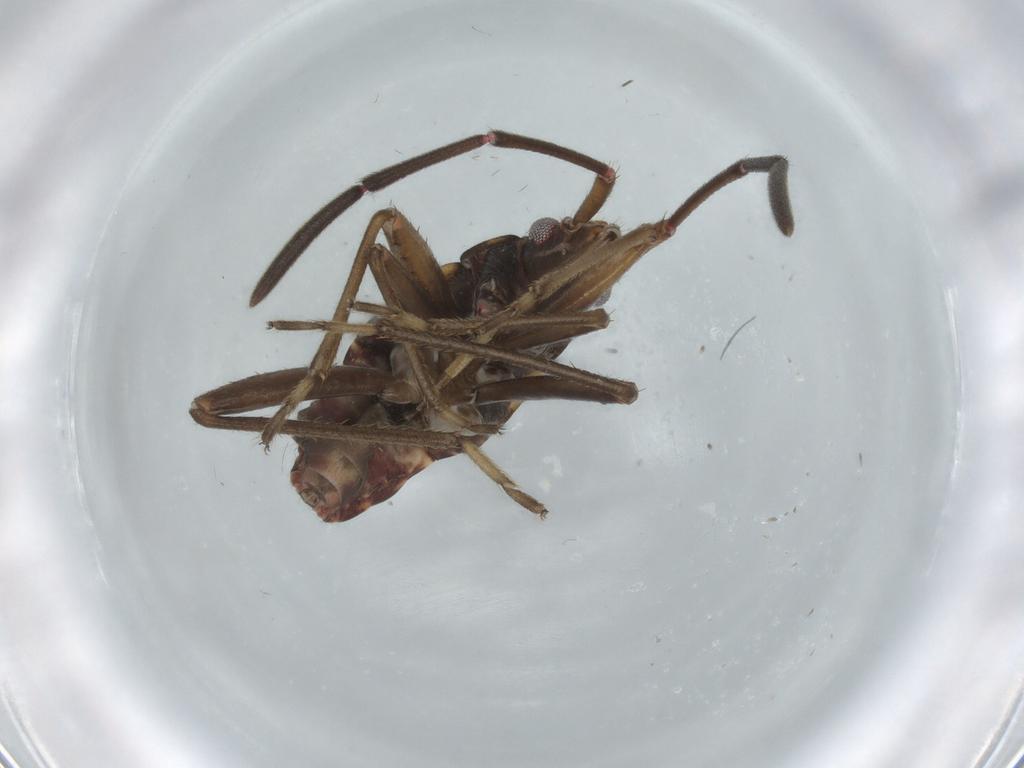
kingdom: Animalia
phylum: Arthropoda
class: Insecta
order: Hemiptera
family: Rhyparochromidae
